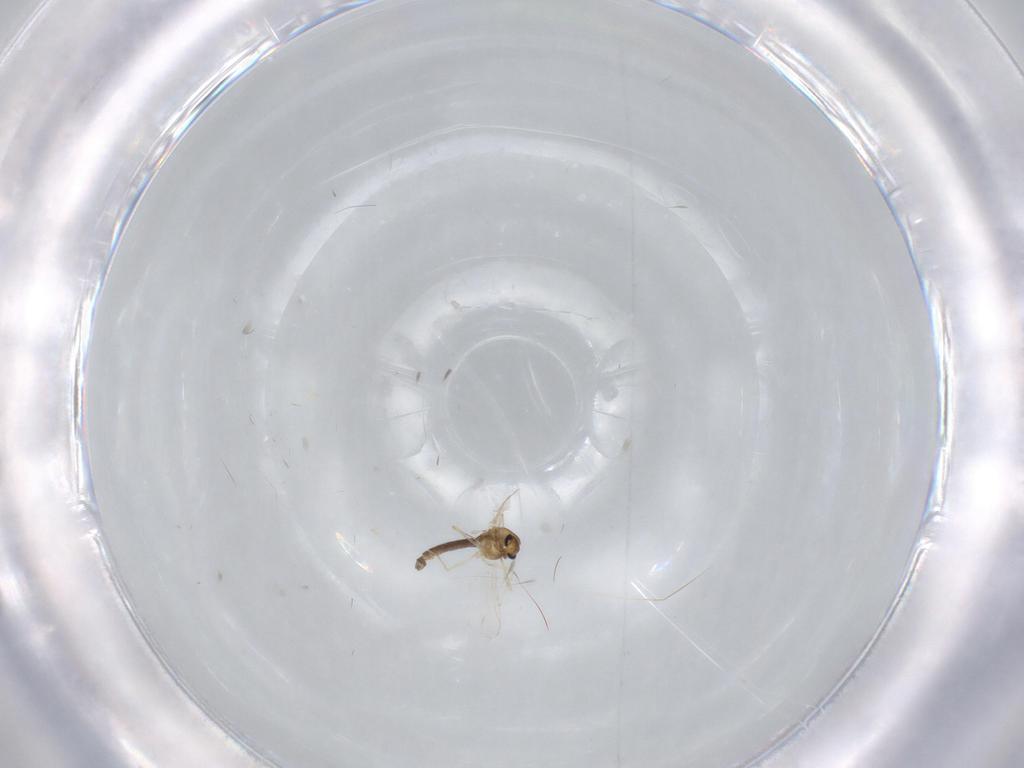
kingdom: Animalia
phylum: Arthropoda
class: Insecta
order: Diptera
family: Chironomidae
